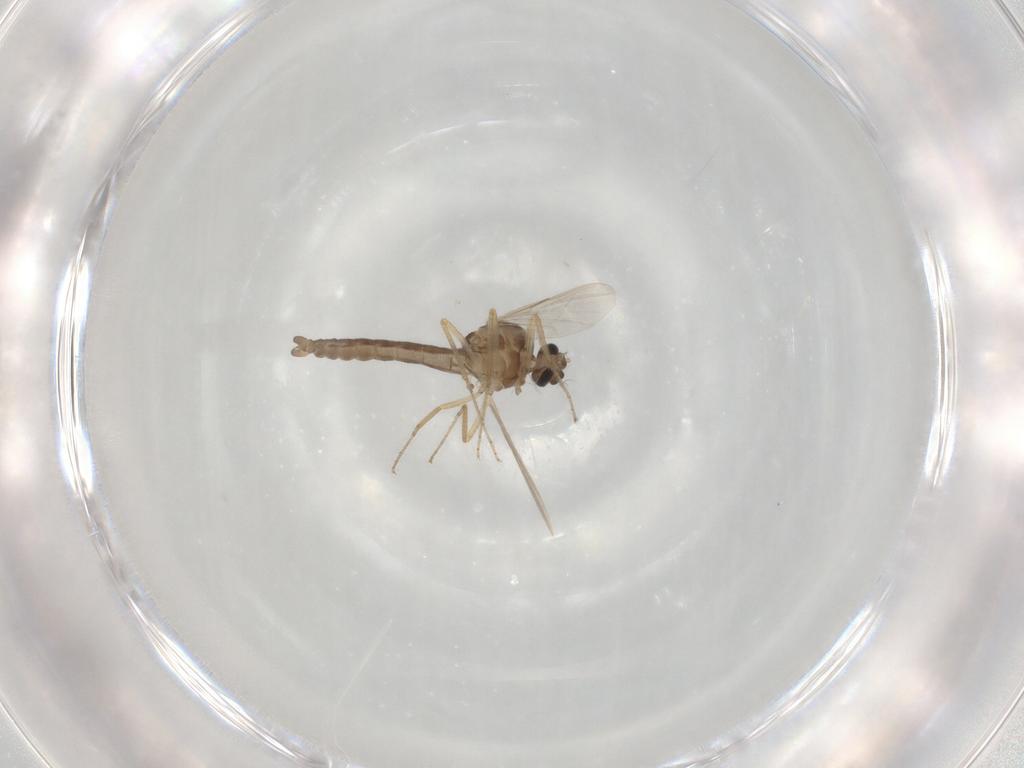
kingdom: Animalia
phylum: Arthropoda
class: Insecta
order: Diptera
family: Ceratopogonidae
